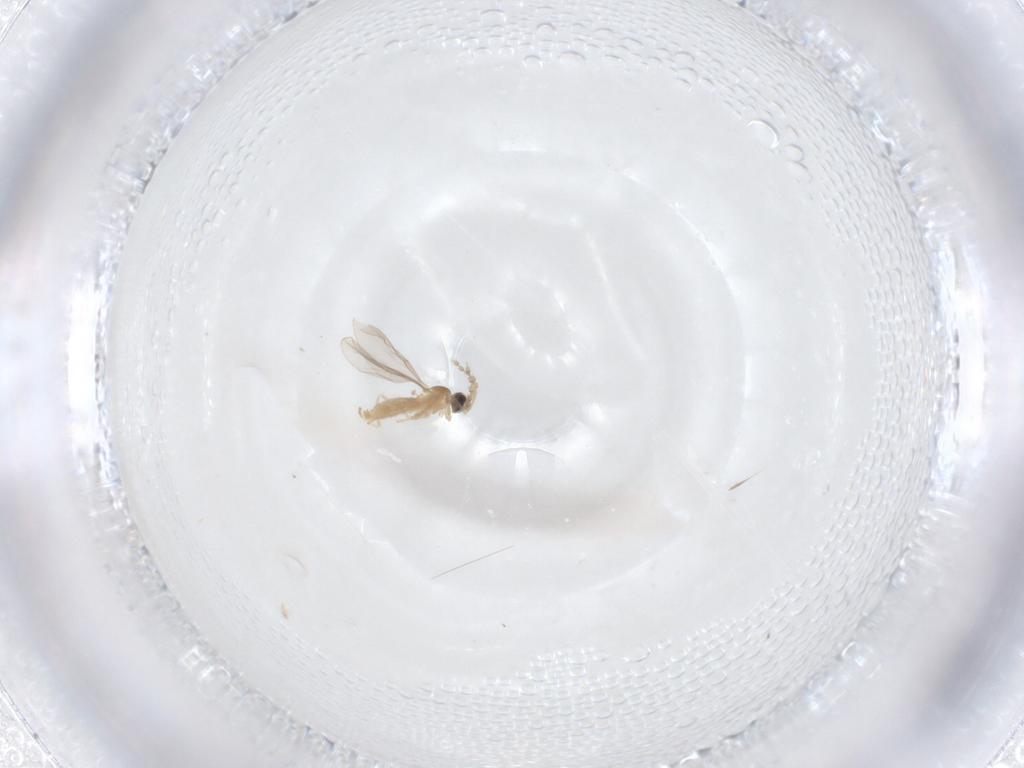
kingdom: Animalia
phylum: Arthropoda
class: Insecta
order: Diptera
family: Cecidomyiidae
